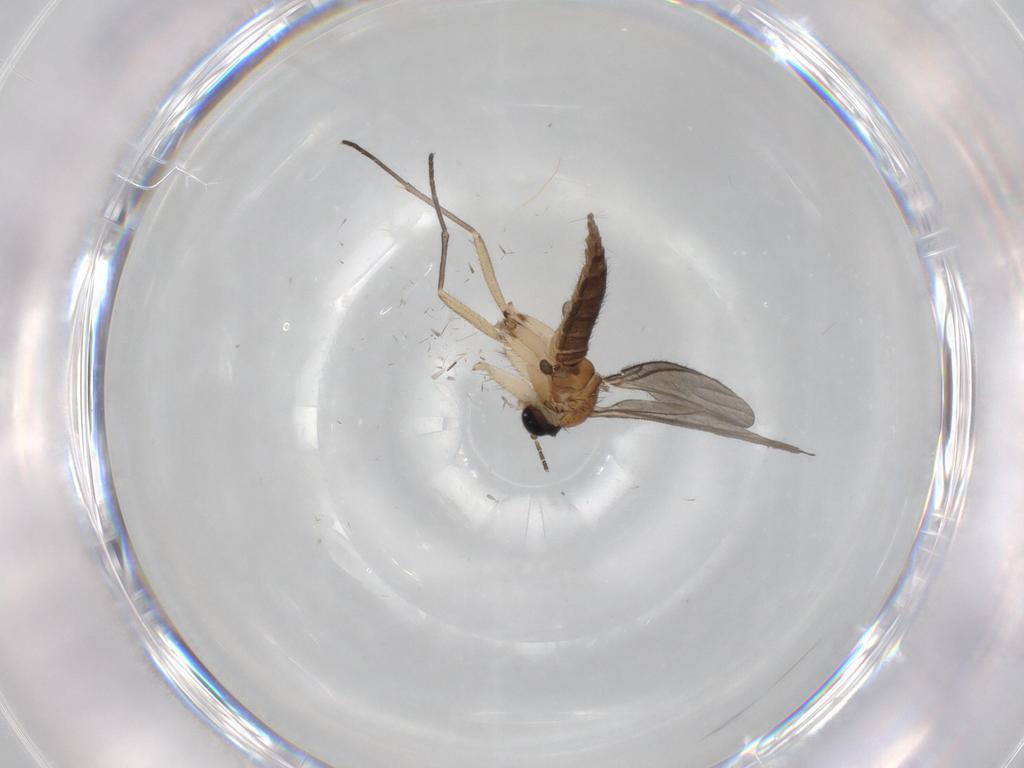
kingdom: Animalia
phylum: Arthropoda
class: Insecta
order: Diptera
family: Sciaridae
